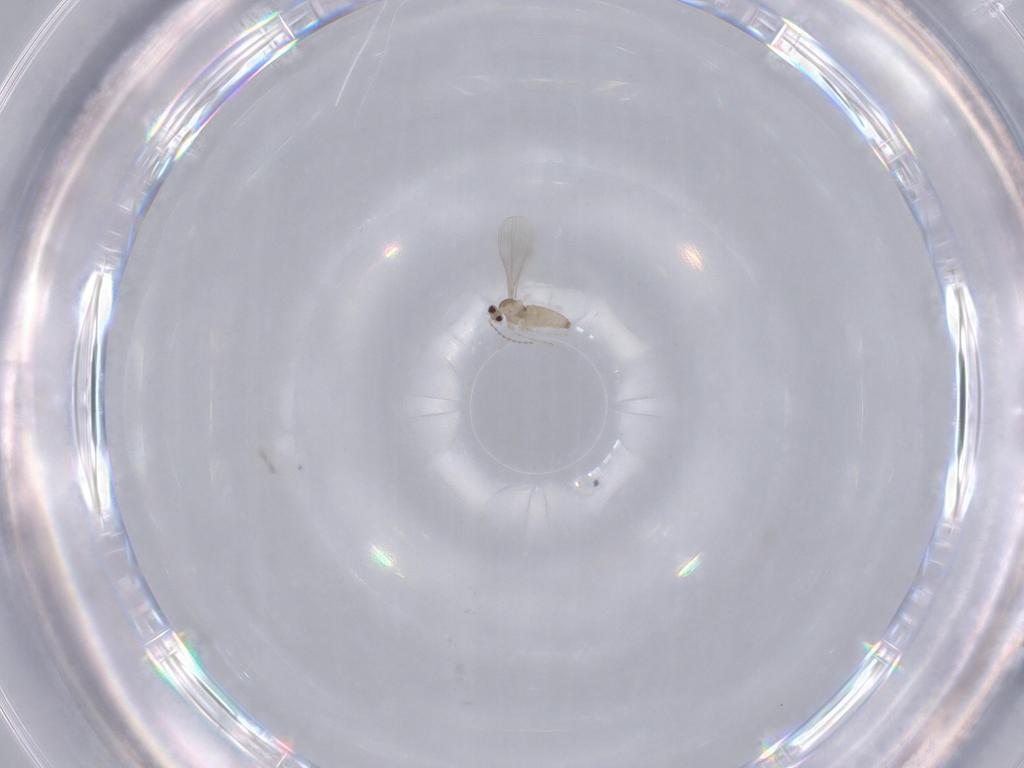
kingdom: Animalia
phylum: Arthropoda
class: Insecta
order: Diptera
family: Cecidomyiidae
